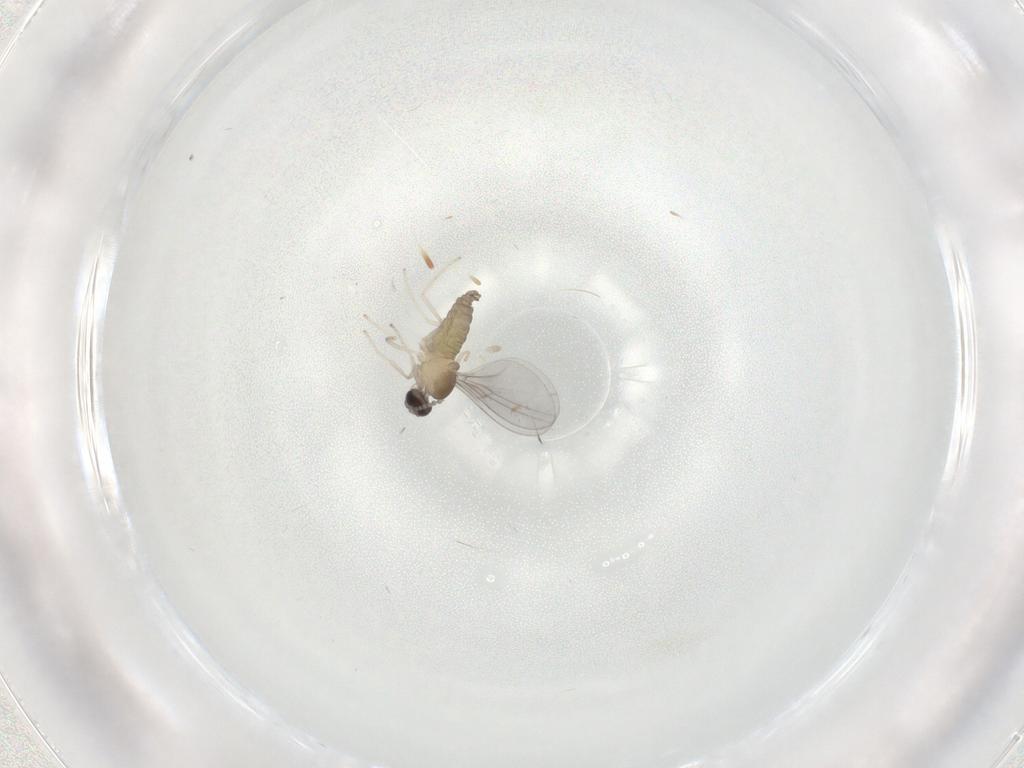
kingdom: Animalia
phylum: Arthropoda
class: Insecta
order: Diptera
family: Cecidomyiidae
